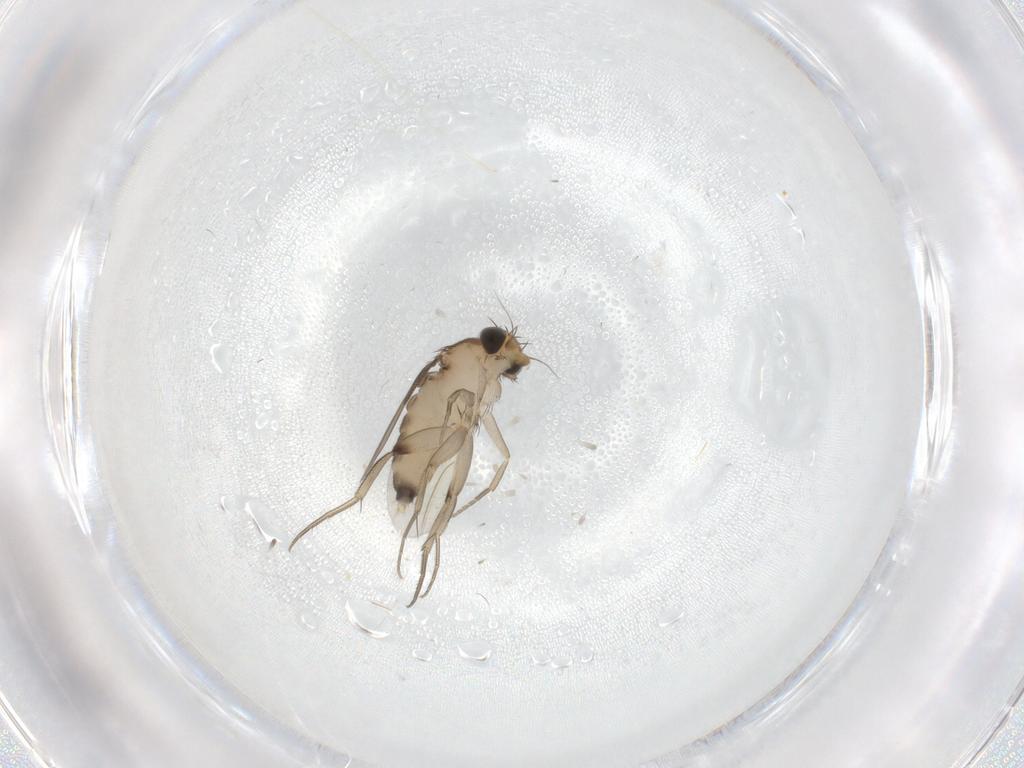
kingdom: Animalia
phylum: Arthropoda
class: Insecta
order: Diptera
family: Phoridae
